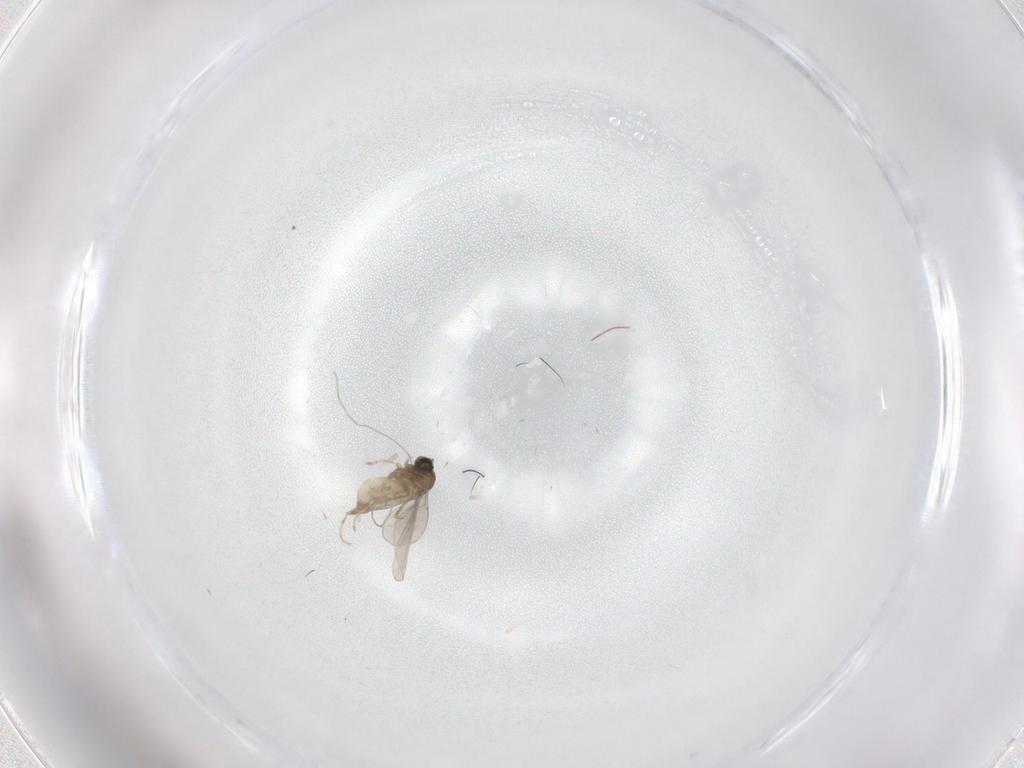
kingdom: Animalia
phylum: Arthropoda
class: Insecta
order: Diptera
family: Cecidomyiidae
